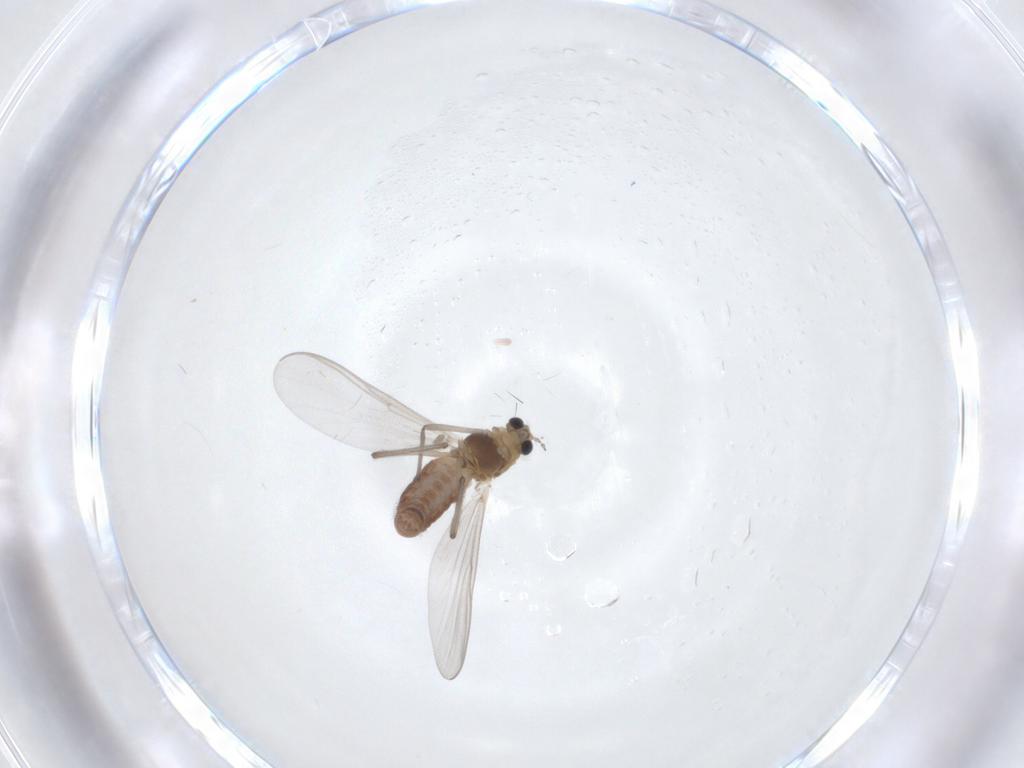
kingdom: Animalia
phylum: Arthropoda
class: Insecta
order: Diptera
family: Chironomidae
